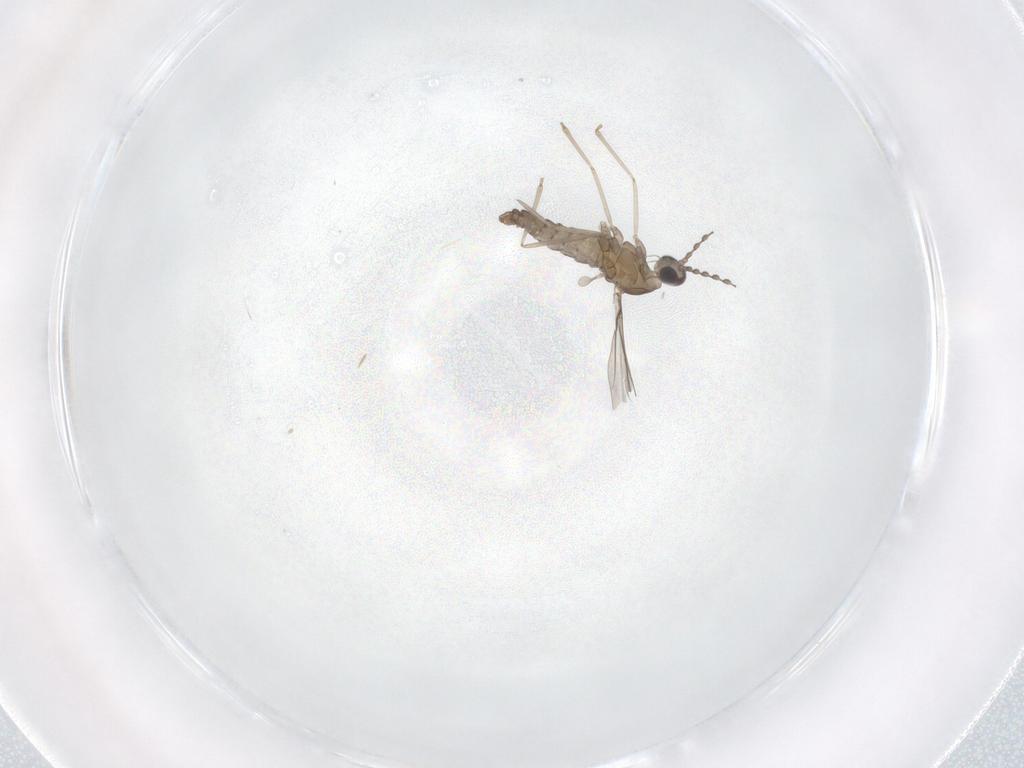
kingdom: Animalia
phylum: Arthropoda
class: Insecta
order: Diptera
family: Cecidomyiidae
